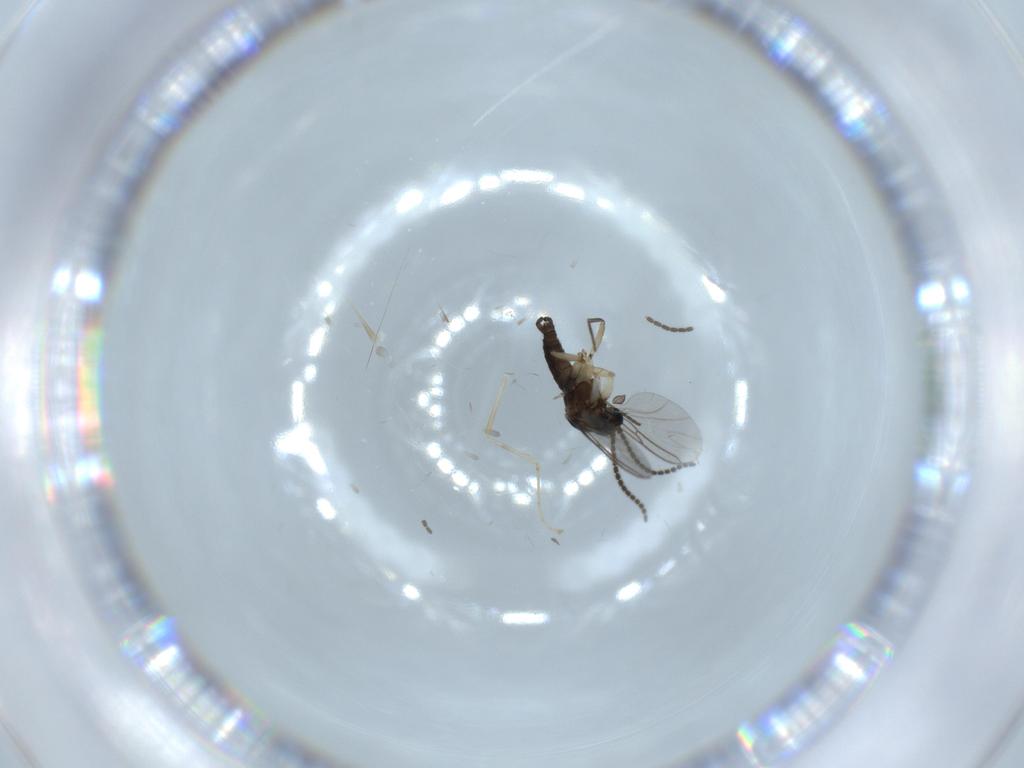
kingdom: Animalia
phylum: Arthropoda
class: Insecta
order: Diptera
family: Sciaridae
